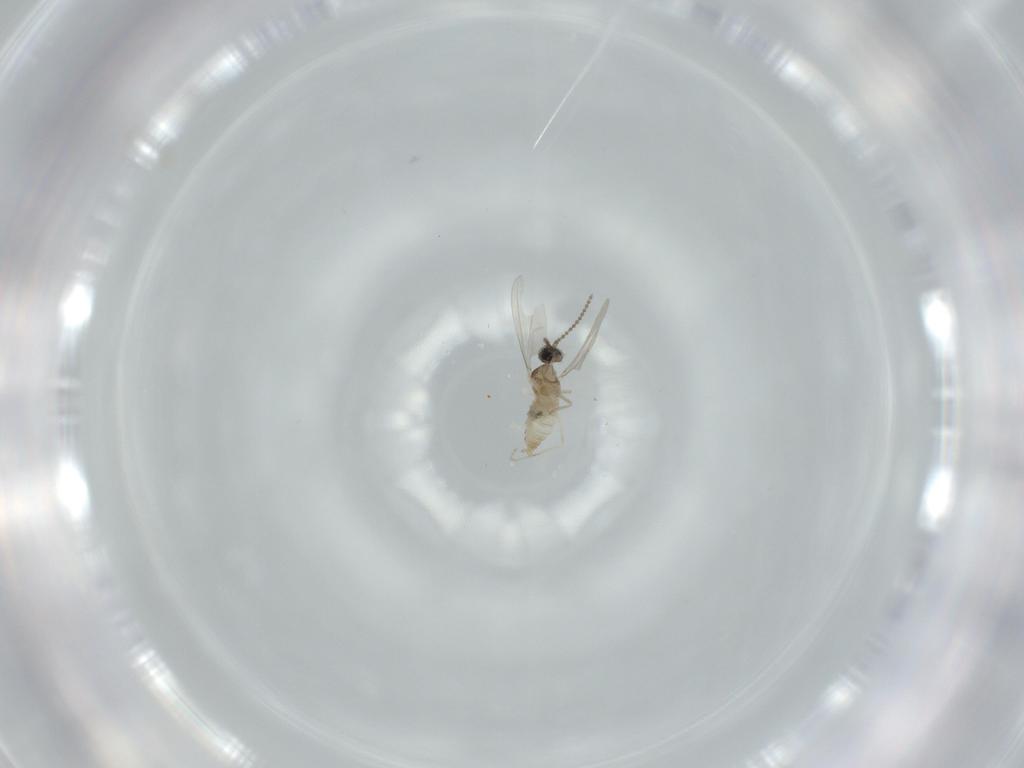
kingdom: Animalia
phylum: Arthropoda
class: Insecta
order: Diptera
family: Cecidomyiidae
